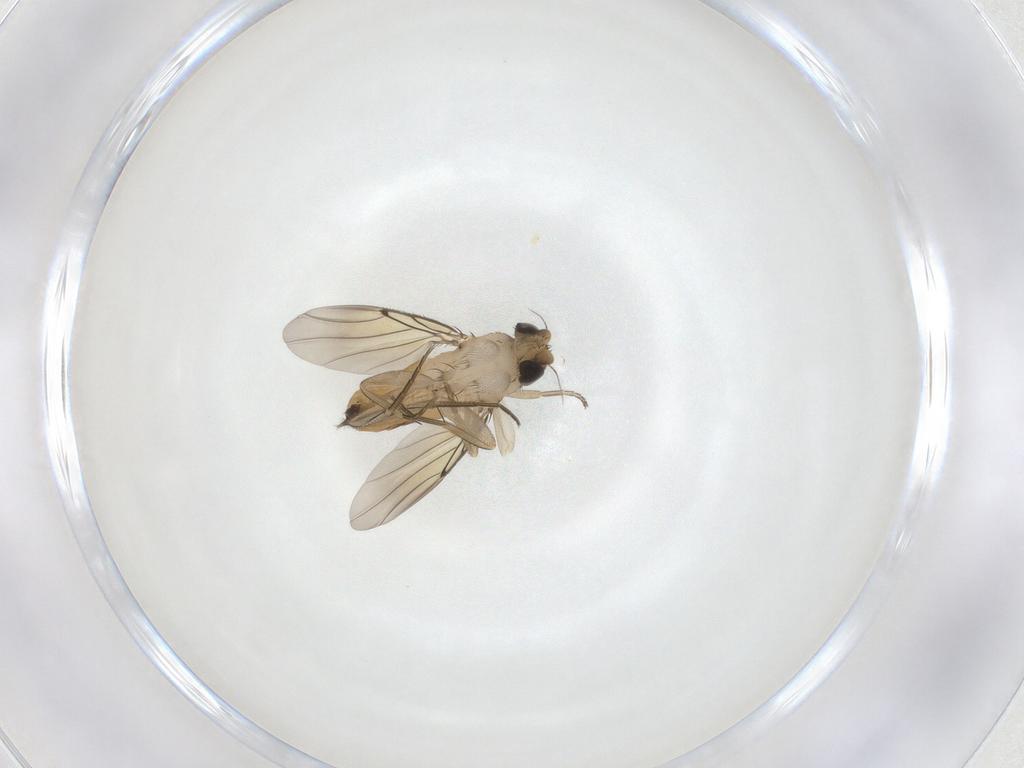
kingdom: Animalia
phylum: Arthropoda
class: Insecta
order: Diptera
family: Phoridae
